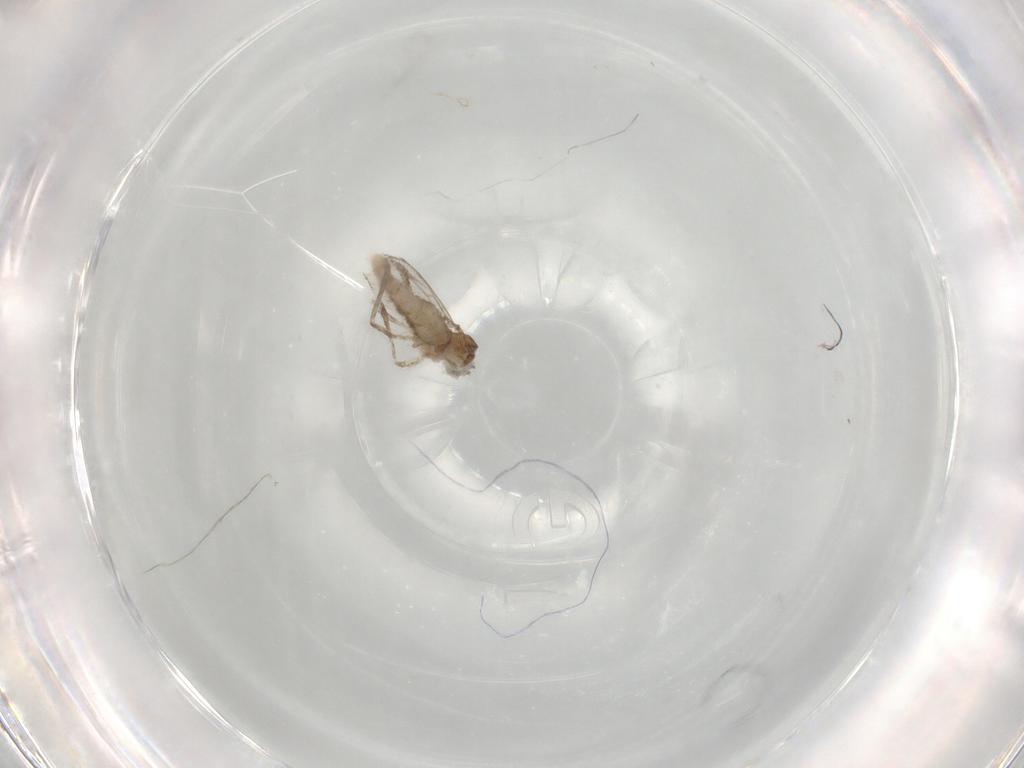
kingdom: Animalia
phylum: Arthropoda
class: Insecta
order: Diptera
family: Cecidomyiidae
